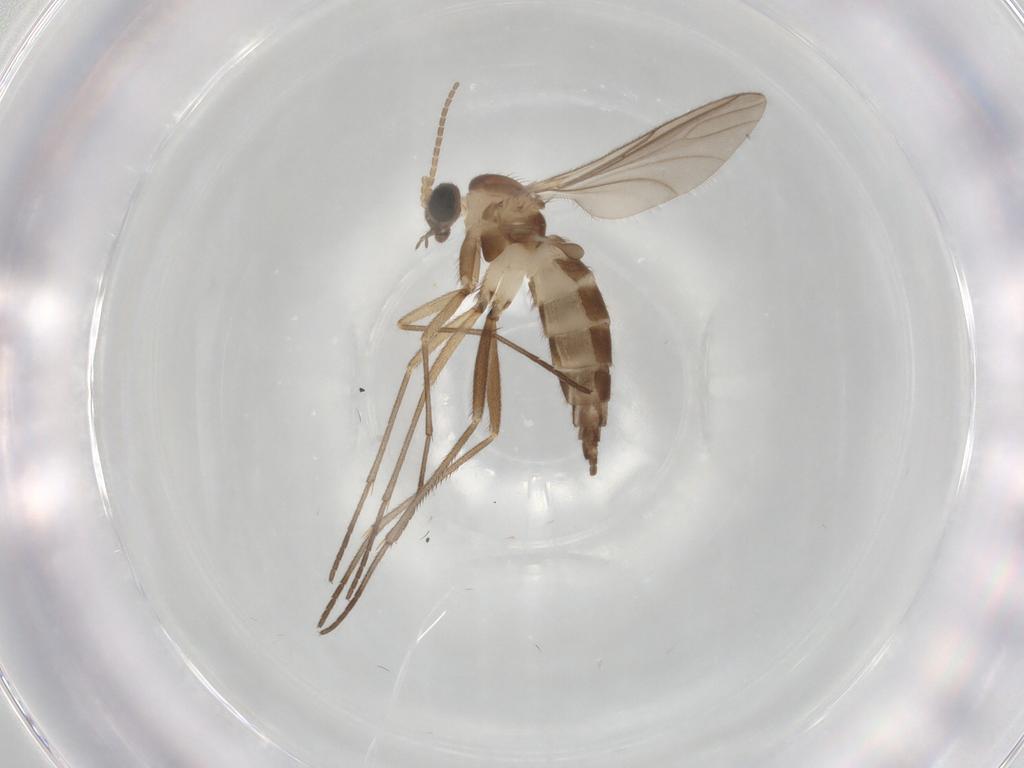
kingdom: Animalia
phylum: Arthropoda
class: Insecta
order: Diptera
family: Sciaridae
